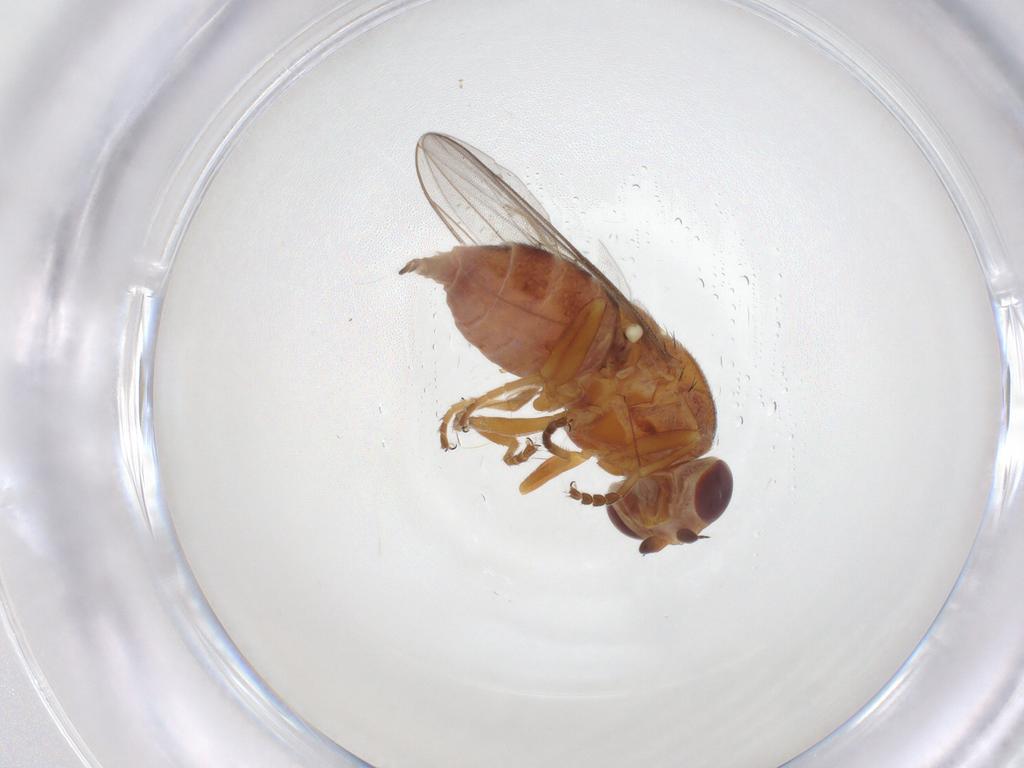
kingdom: Animalia
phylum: Arthropoda
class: Insecta
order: Diptera
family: Chloropidae
